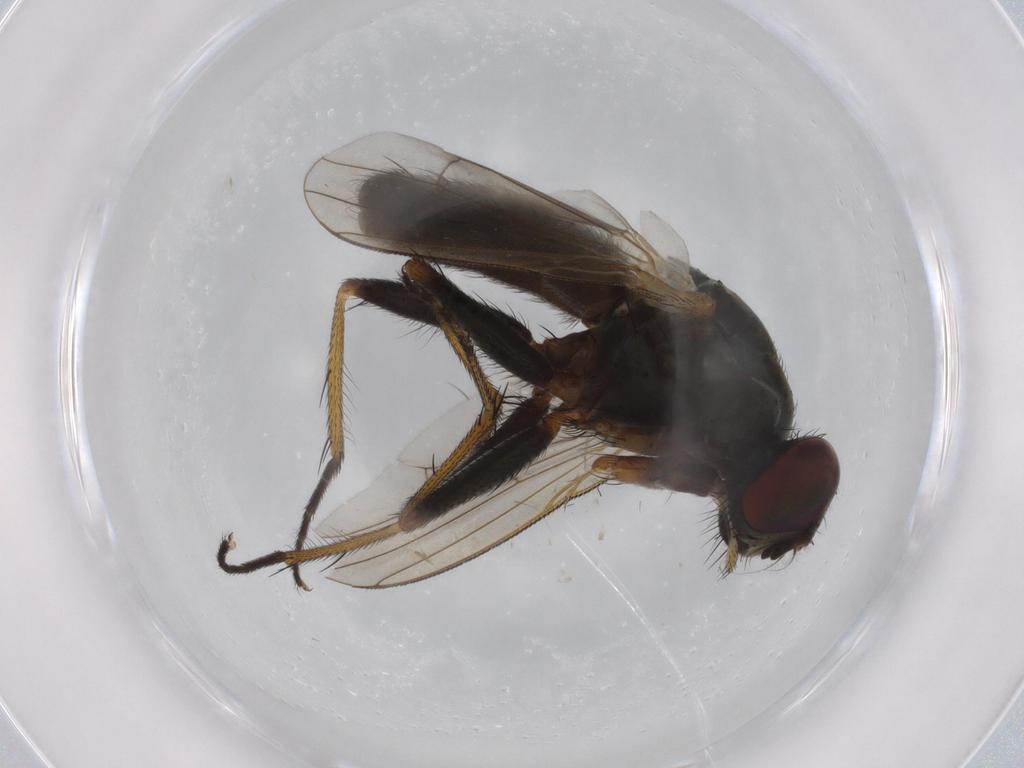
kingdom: Animalia
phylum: Arthropoda
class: Insecta
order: Diptera
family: Muscidae
